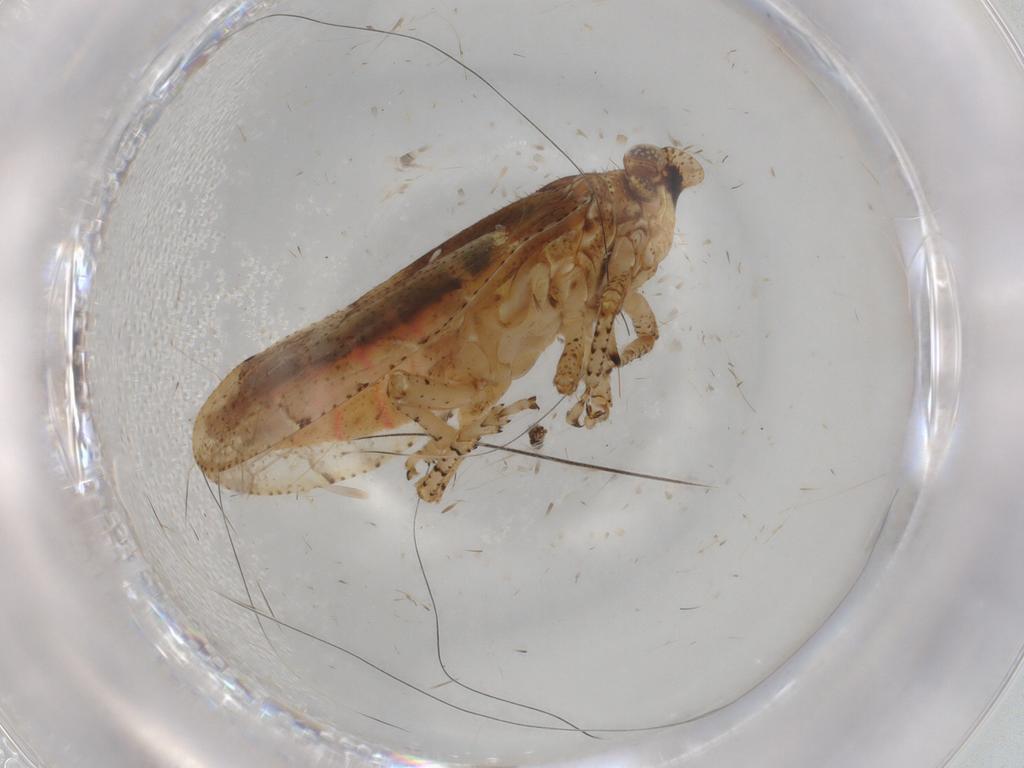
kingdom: Animalia
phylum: Arthropoda
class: Insecta
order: Hemiptera
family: Tettigometridae
